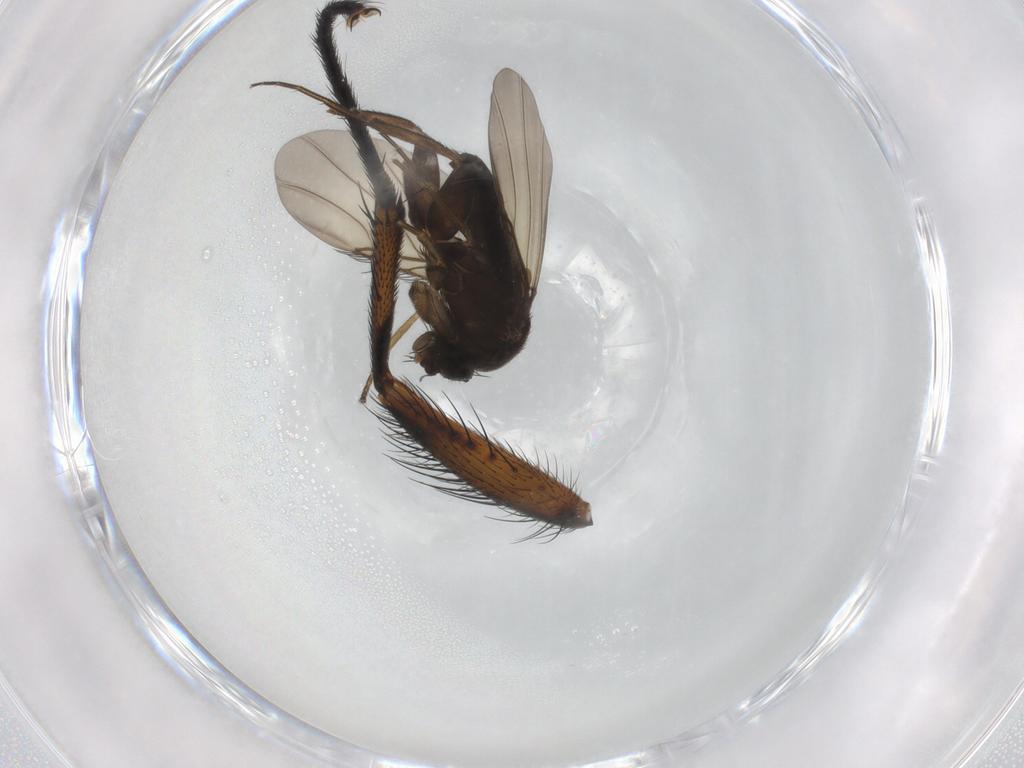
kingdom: Animalia
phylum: Arthropoda
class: Insecta
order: Diptera
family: Phoridae
